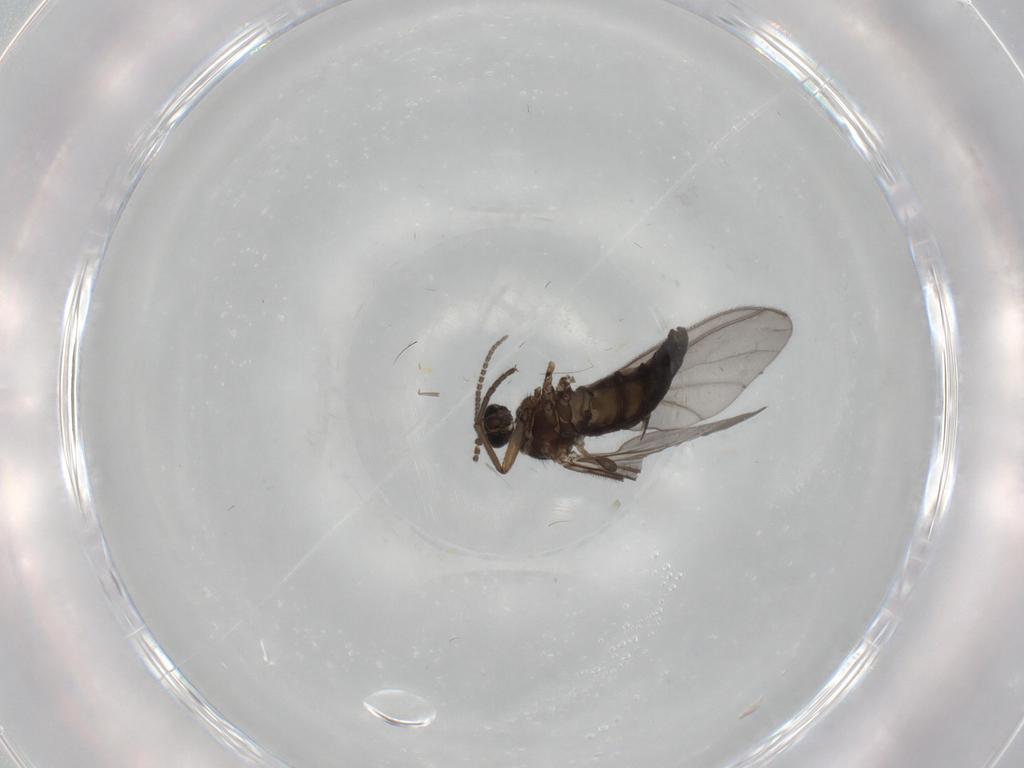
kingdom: Animalia
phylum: Arthropoda
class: Insecta
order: Diptera
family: Sciaridae
